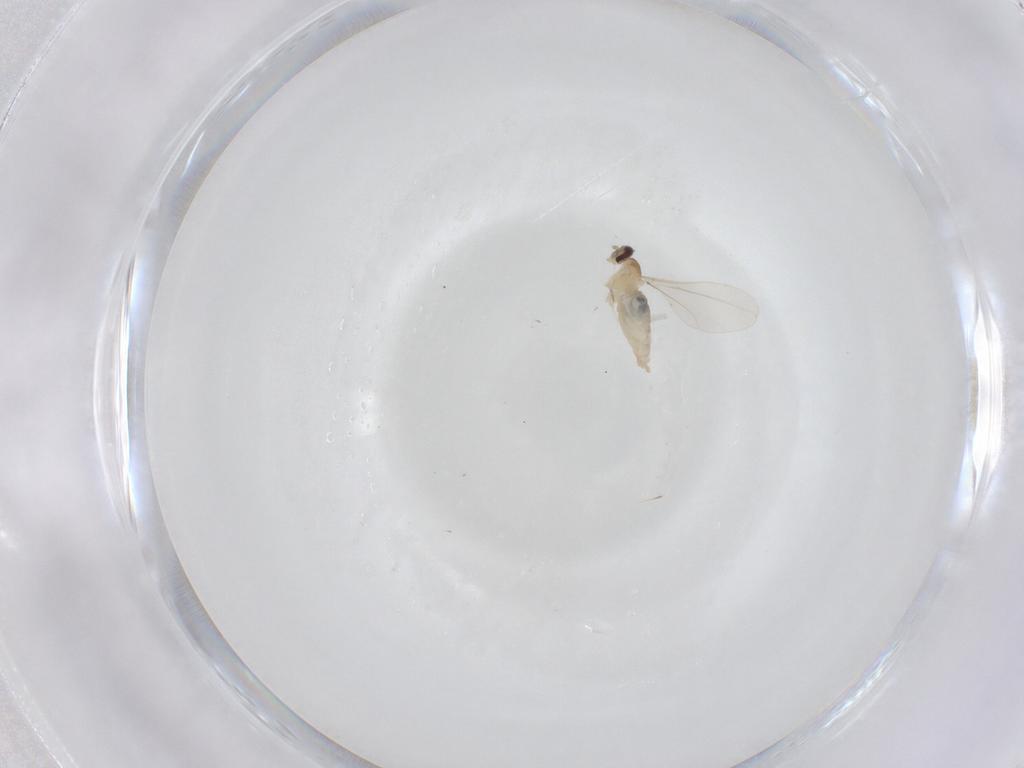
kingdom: Animalia
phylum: Arthropoda
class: Insecta
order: Diptera
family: Cecidomyiidae
